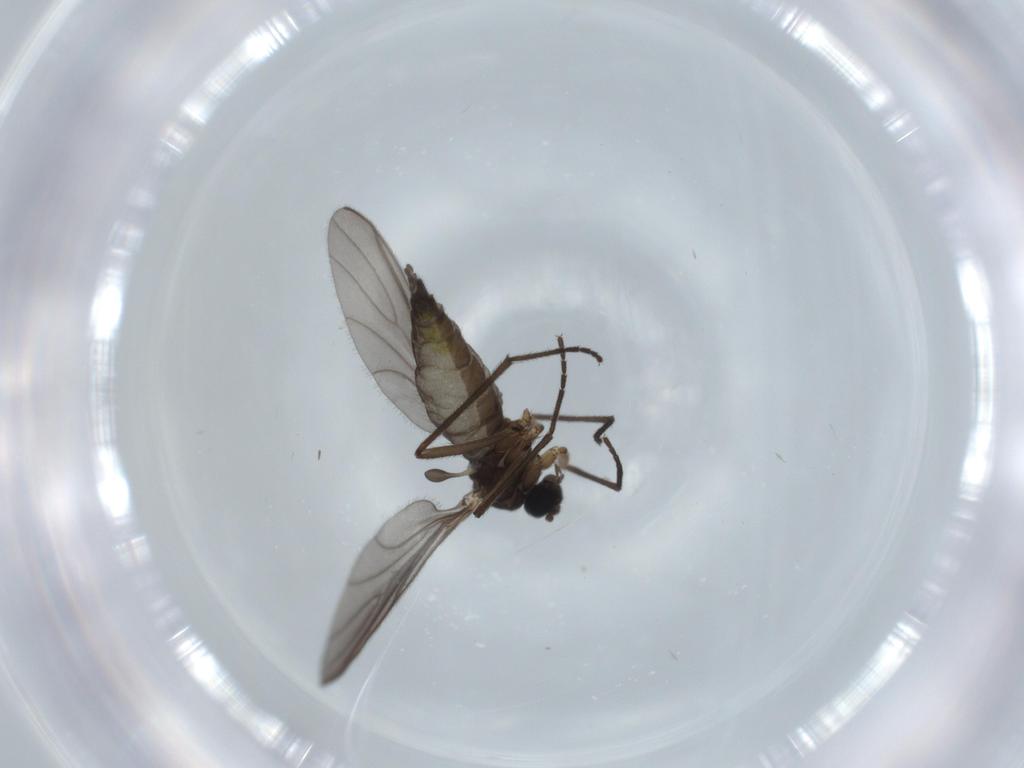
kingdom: Animalia
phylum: Arthropoda
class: Insecta
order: Diptera
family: Sciaridae
